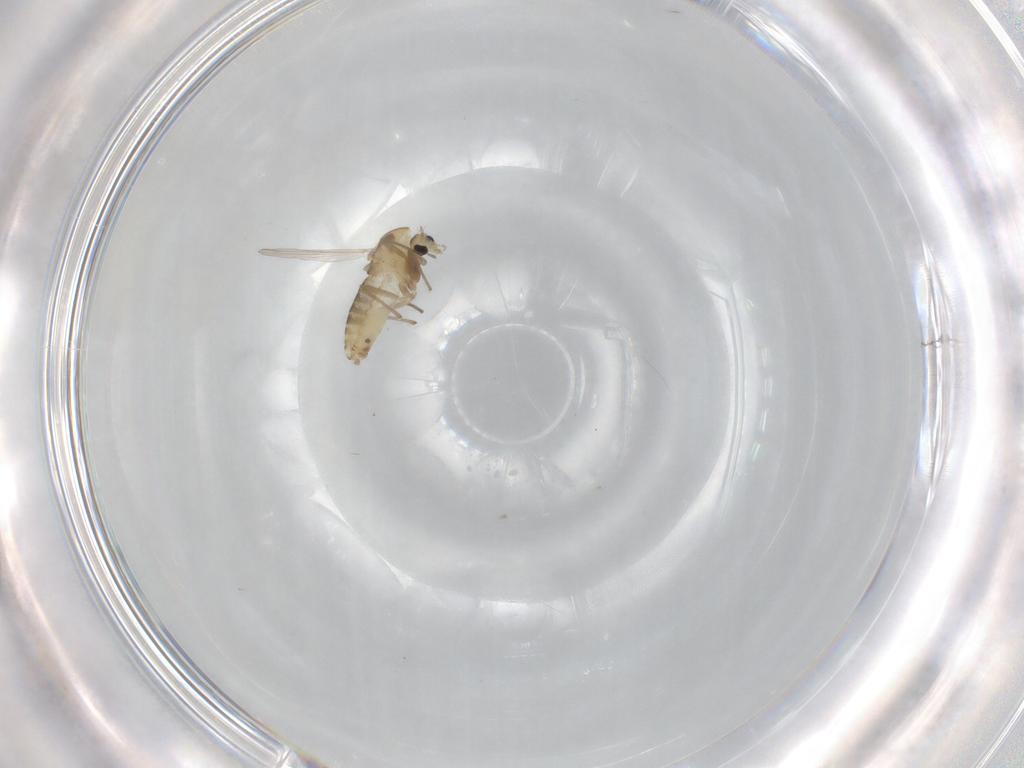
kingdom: Animalia
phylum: Arthropoda
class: Insecta
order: Diptera
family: Chironomidae
